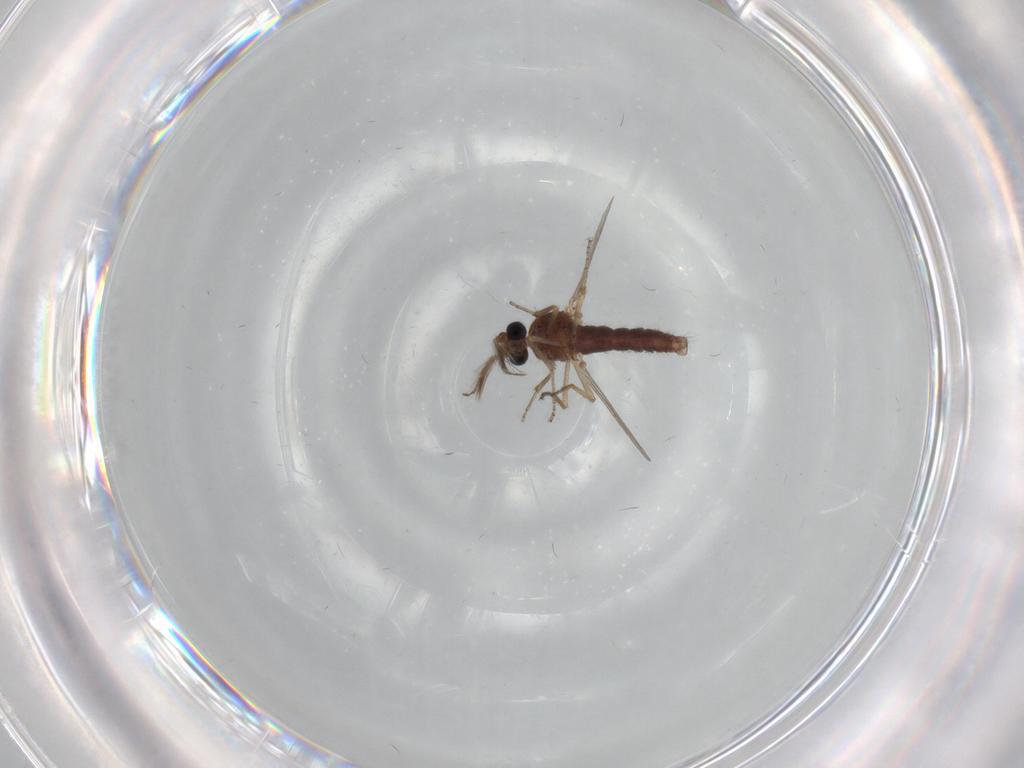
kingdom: Animalia
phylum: Arthropoda
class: Insecta
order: Diptera
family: Ceratopogonidae
